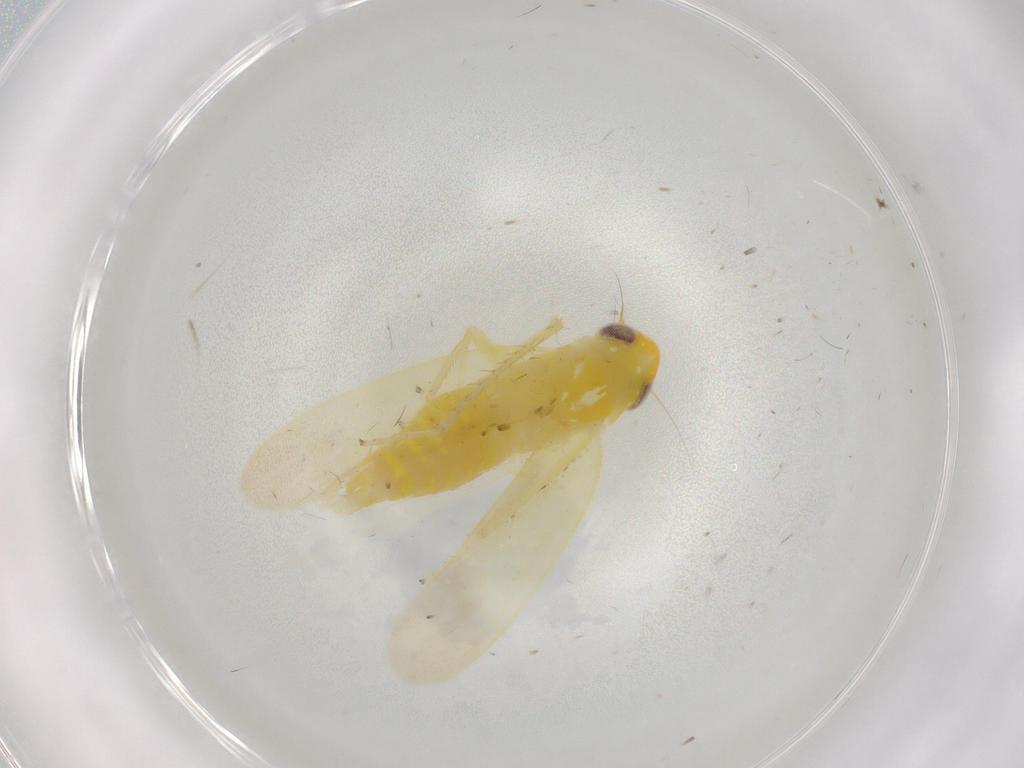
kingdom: Animalia
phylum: Arthropoda
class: Insecta
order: Hemiptera
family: Cicadellidae
